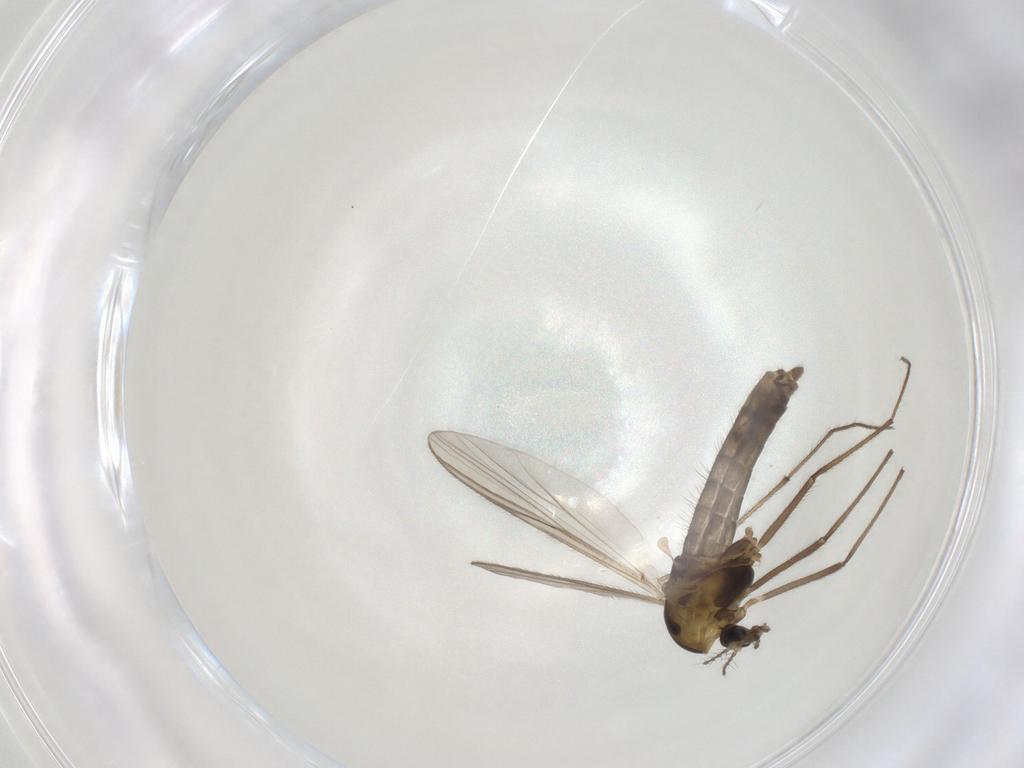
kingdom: Animalia
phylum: Arthropoda
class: Insecta
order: Diptera
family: Chironomidae
